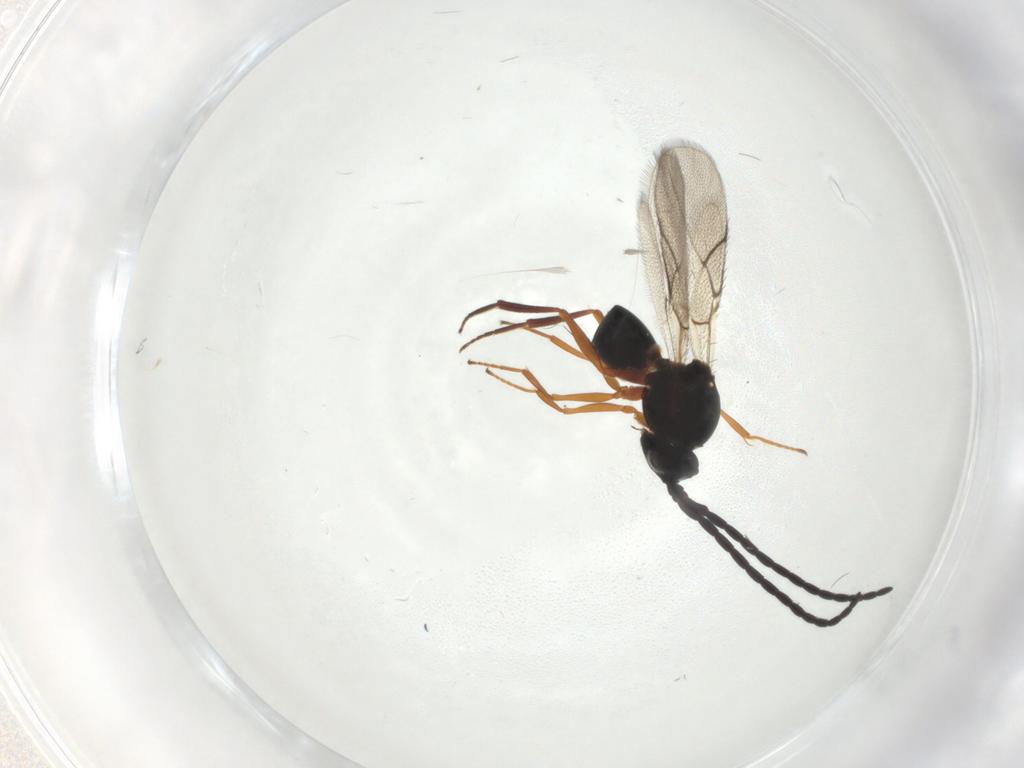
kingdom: Animalia
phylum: Arthropoda
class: Insecta
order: Hymenoptera
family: Figitidae
